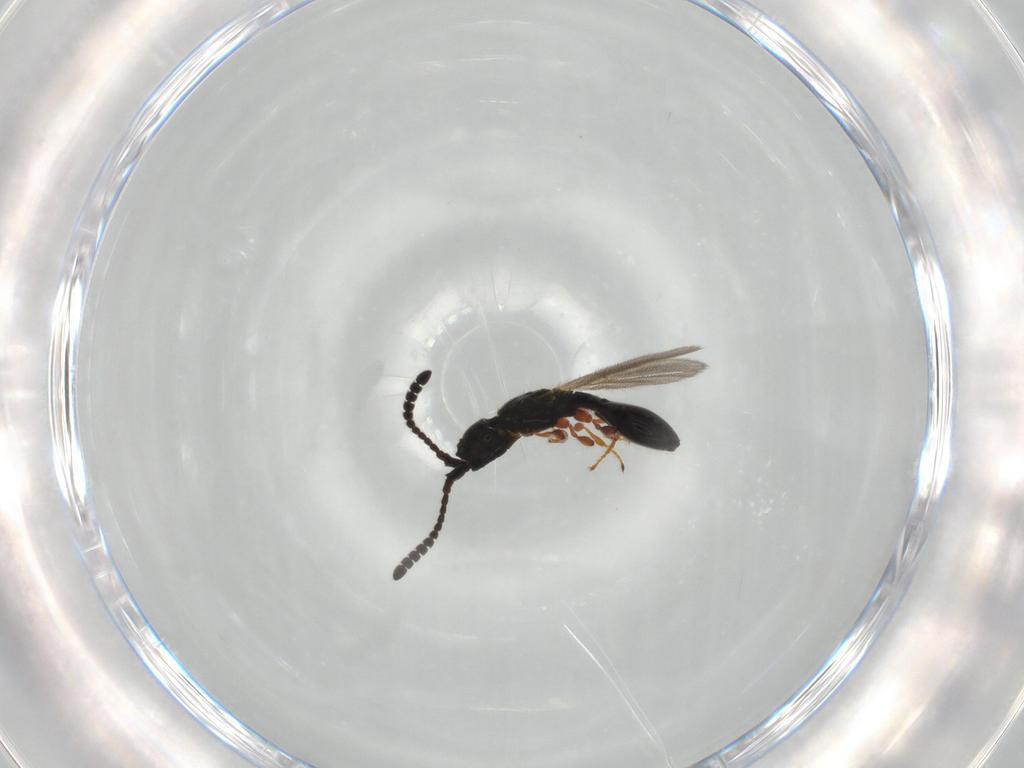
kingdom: Animalia
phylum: Arthropoda
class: Insecta
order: Hymenoptera
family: Diapriidae
